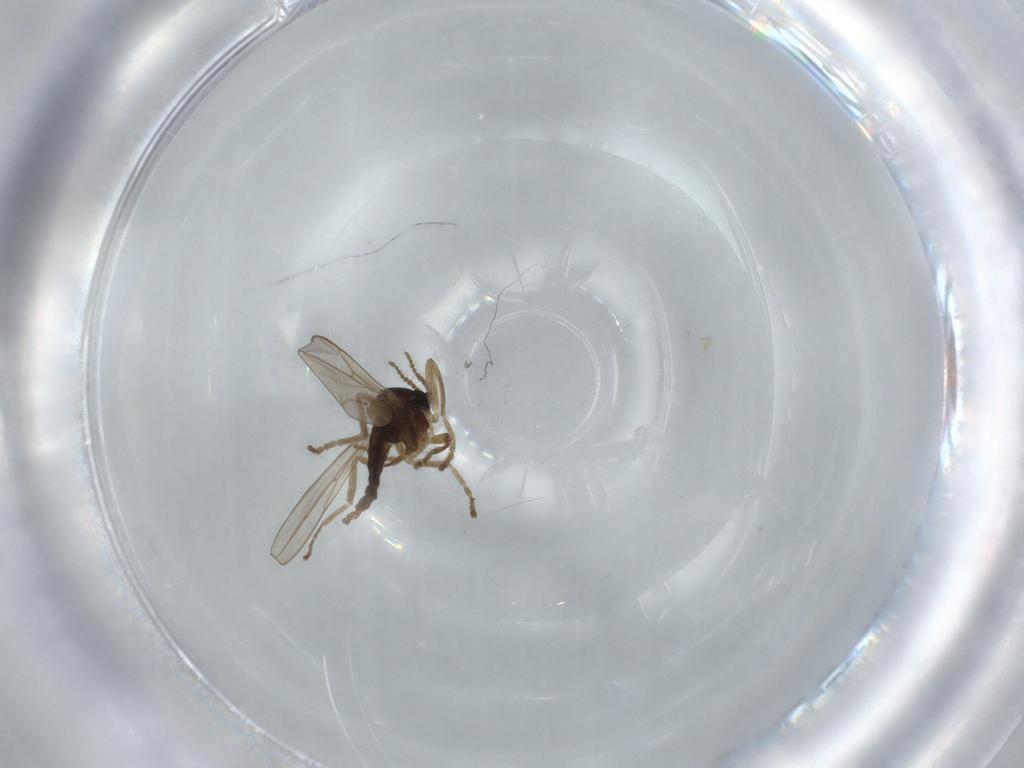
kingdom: Animalia
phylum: Arthropoda
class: Insecta
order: Diptera
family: Cecidomyiidae
